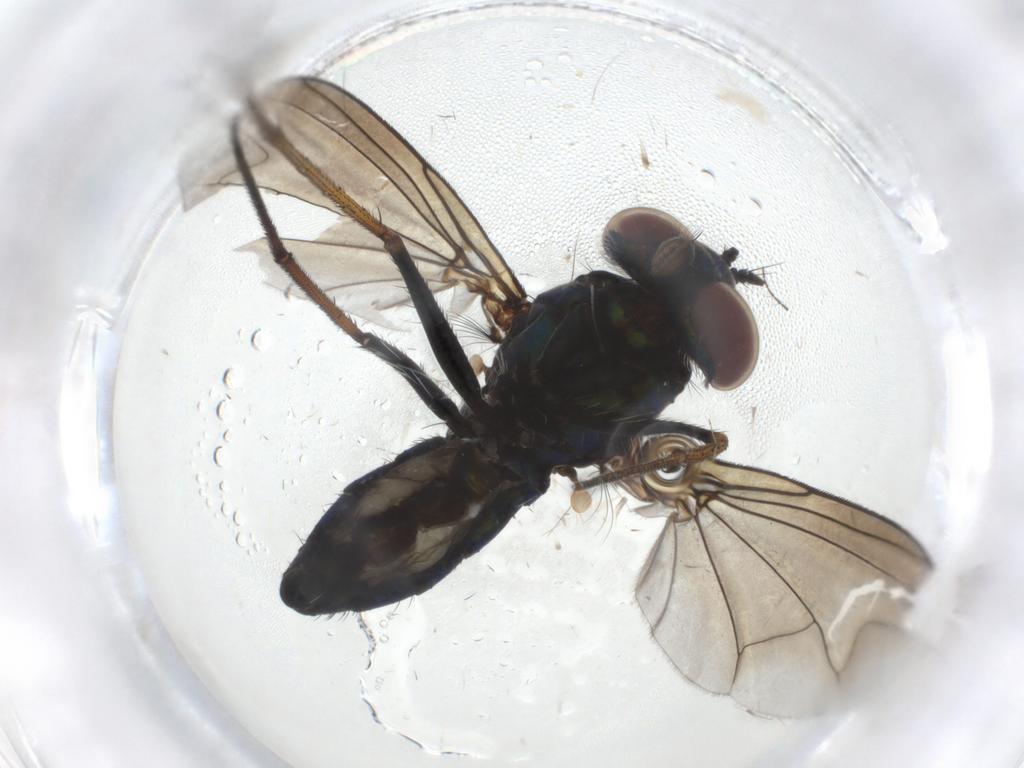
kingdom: Animalia
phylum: Arthropoda
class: Insecta
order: Diptera
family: Dolichopodidae
